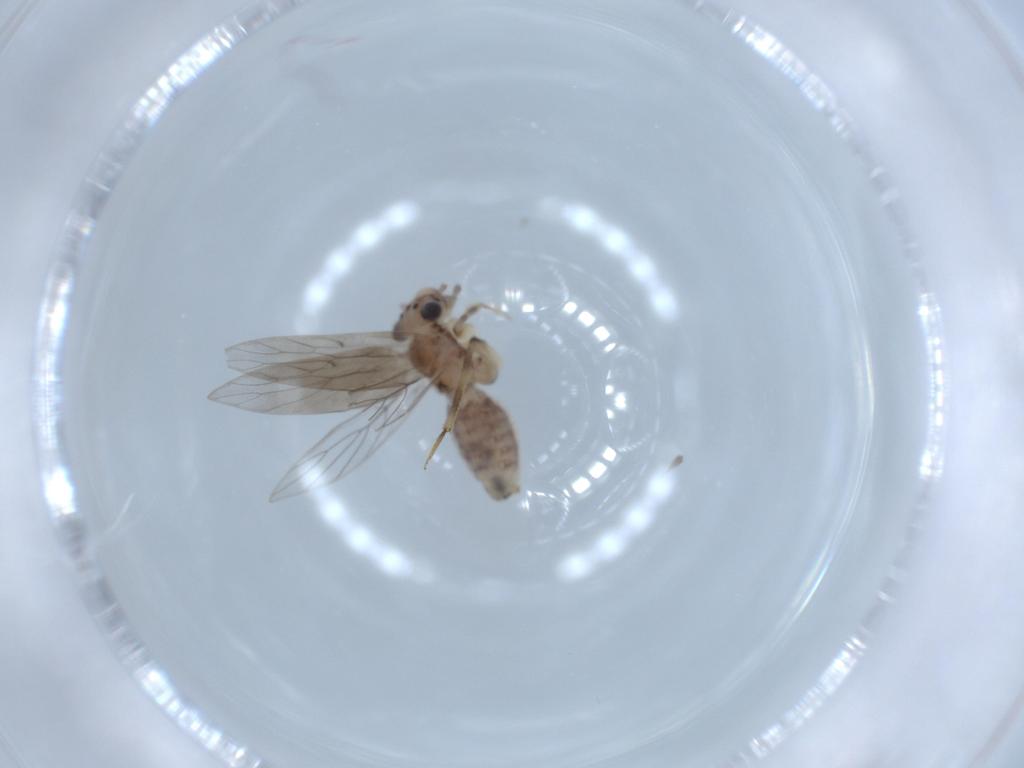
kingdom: Animalia
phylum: Arthropoda
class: Insecta
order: Psocodea
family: Lepidopsocidae
